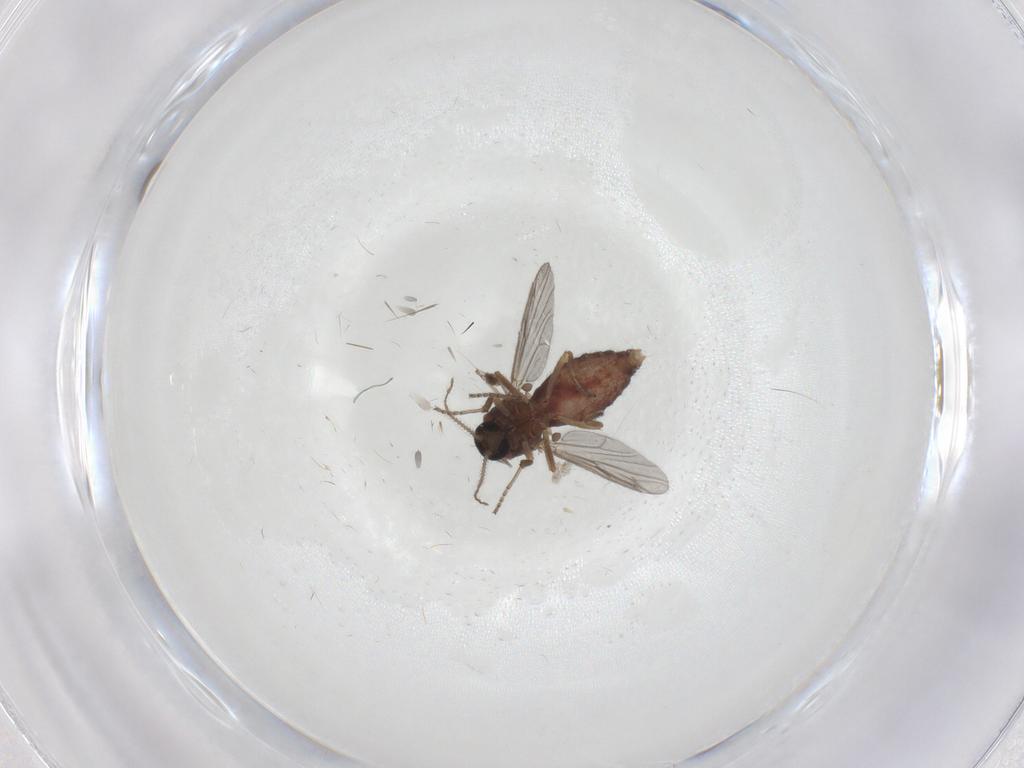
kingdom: Animalia
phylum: Arthropoda
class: Insecta
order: Diptera
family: Ceratopogonidae
